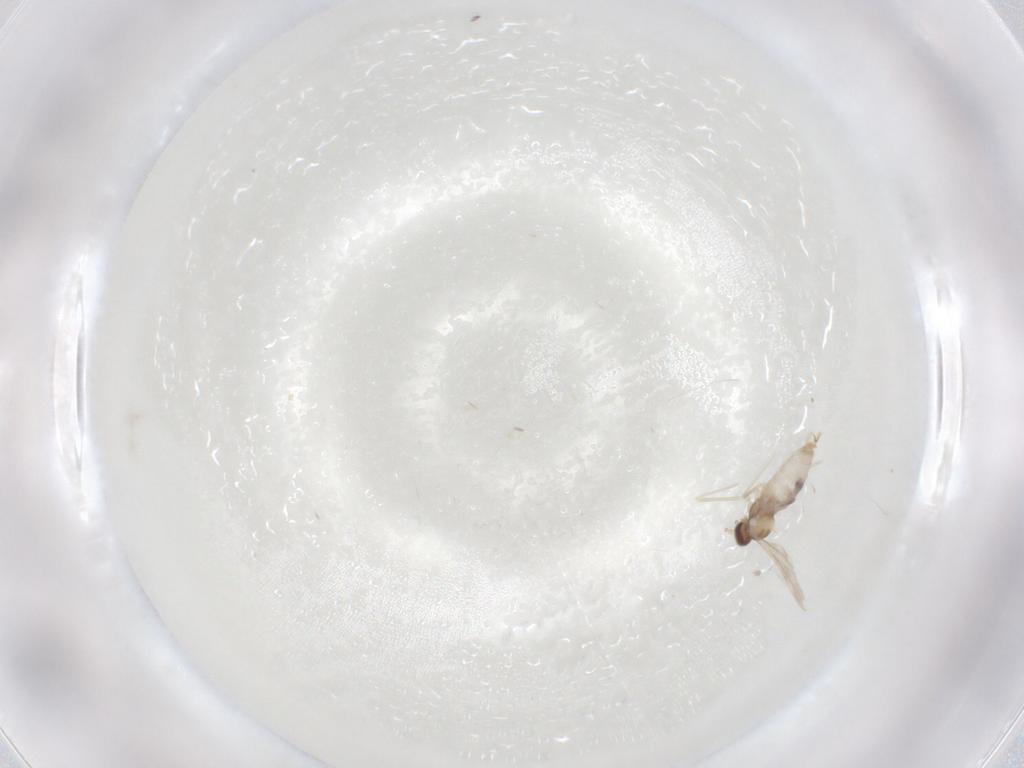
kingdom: Animalia
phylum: Arthropoda
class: Insecta
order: Diptera
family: Cecidomyiidae
